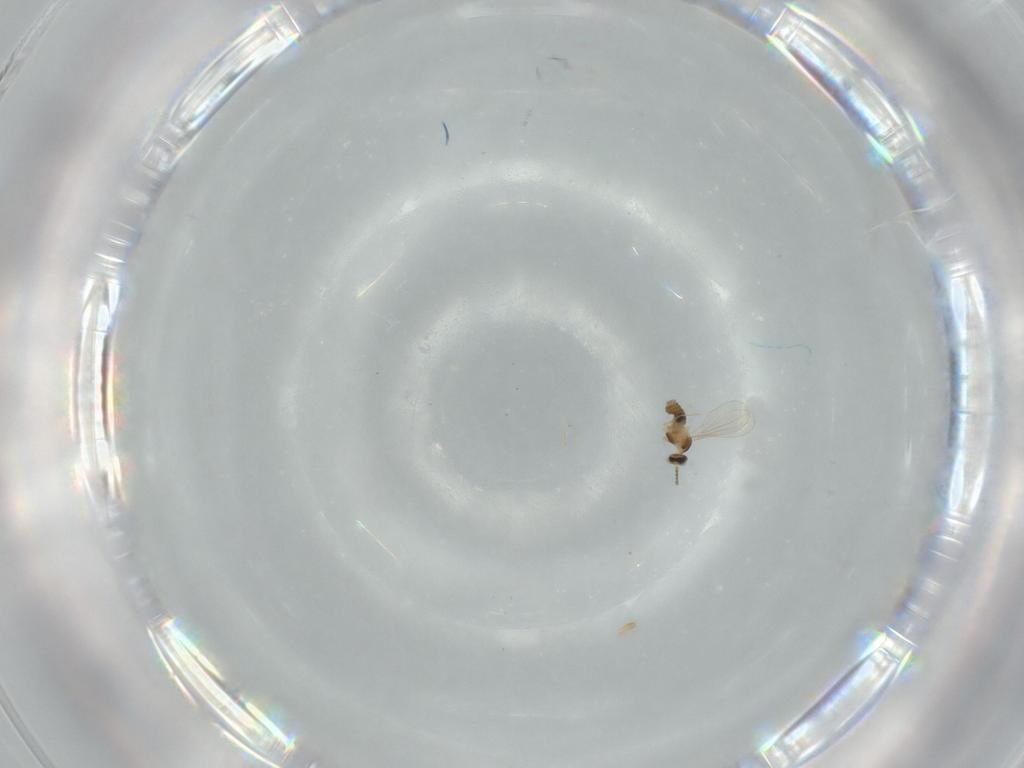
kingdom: Animalia
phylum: Arthropoda
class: Insecta
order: Diptera
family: Cecidomyiidae
